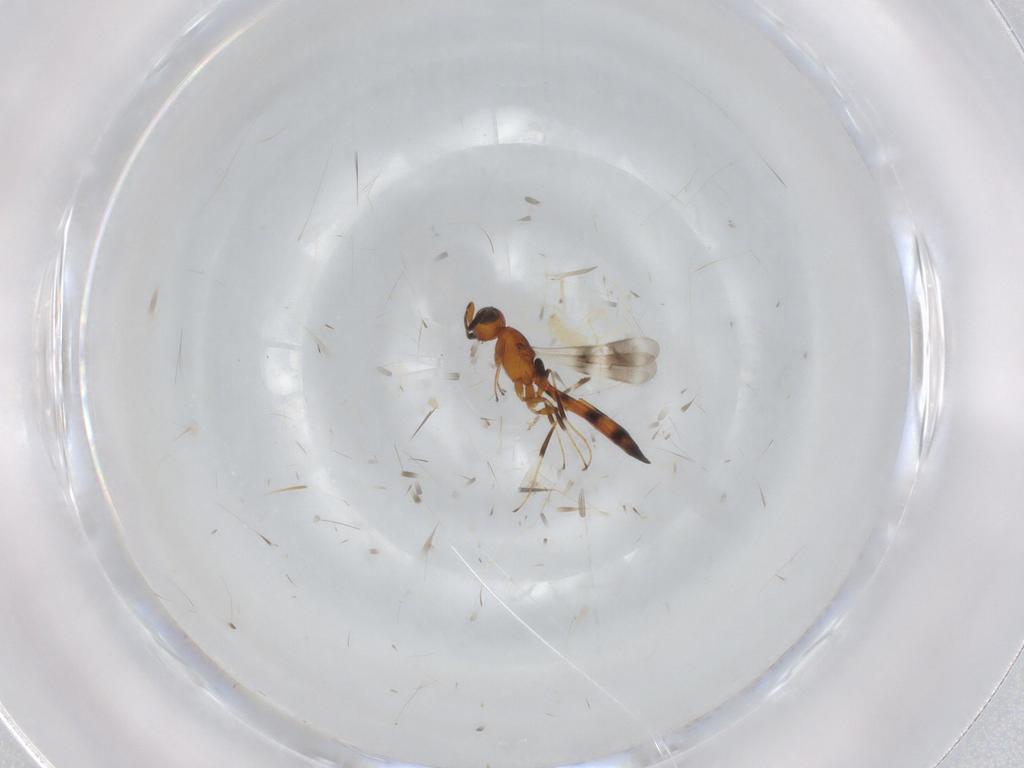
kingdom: Animalia
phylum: Arthropoda
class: Insecta
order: Hymenoptera
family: Scelionidae
